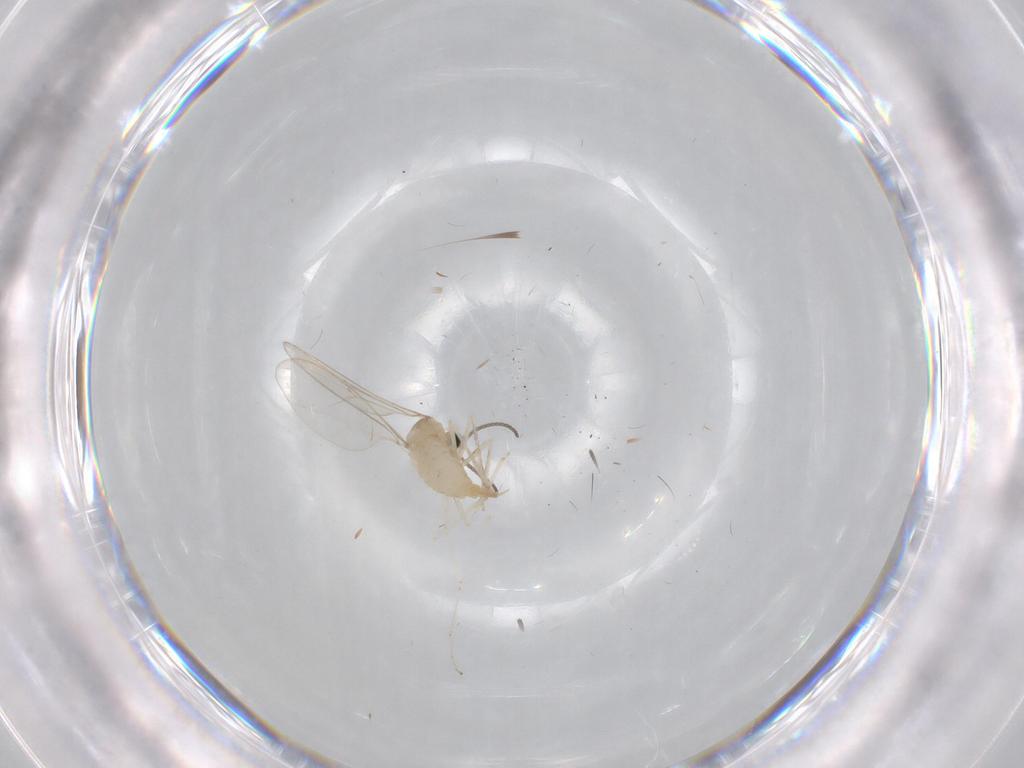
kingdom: Animalia
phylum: Arthropoda
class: Insecta
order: Diptera
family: Cecidomyiidae
